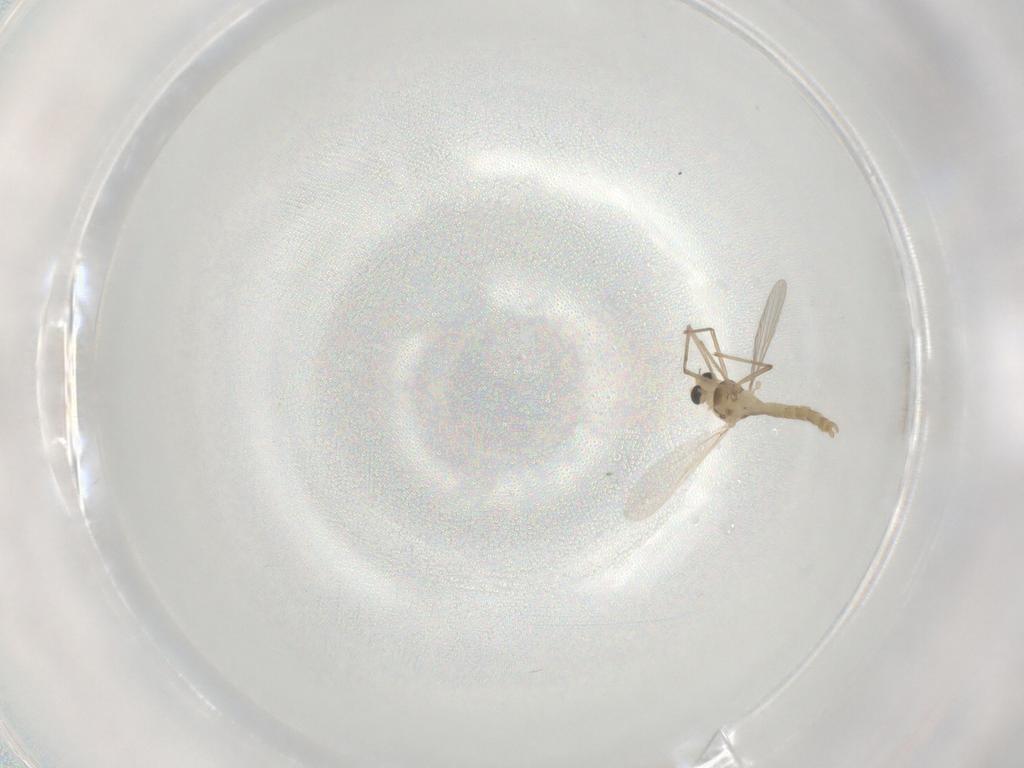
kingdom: Animalia
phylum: Arthropoda
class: Insecta
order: Diptera
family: Chironomidae
